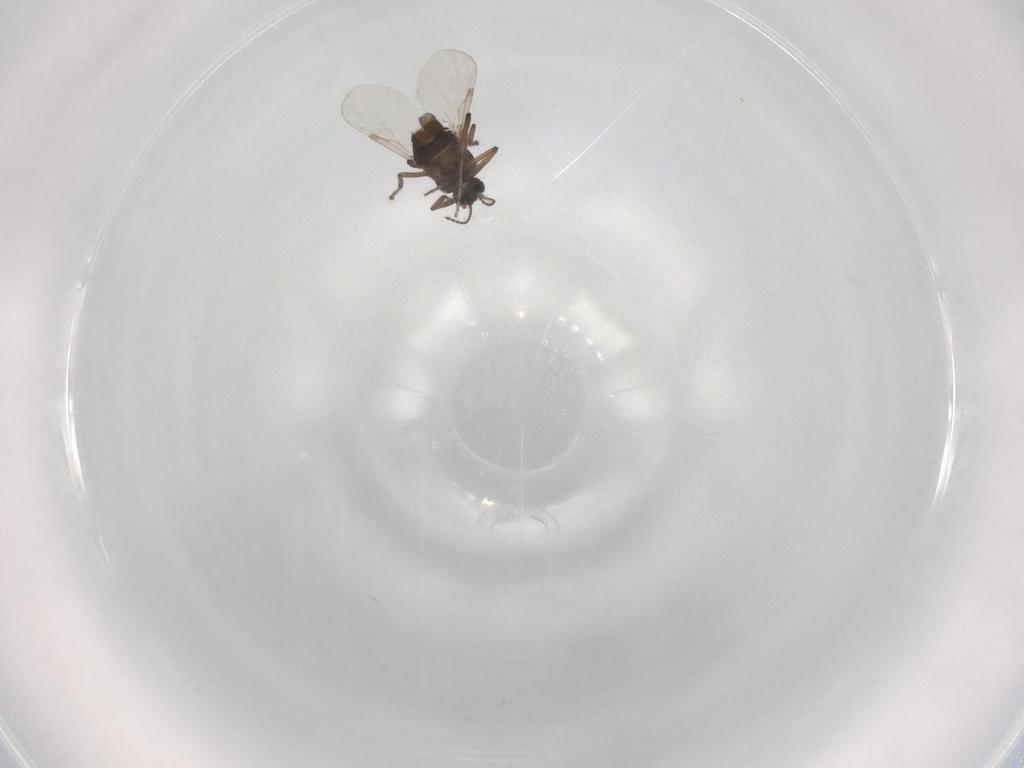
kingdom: Animalia
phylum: Arthropoda
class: Insecta
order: Diptera
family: Ceratopogonidae
